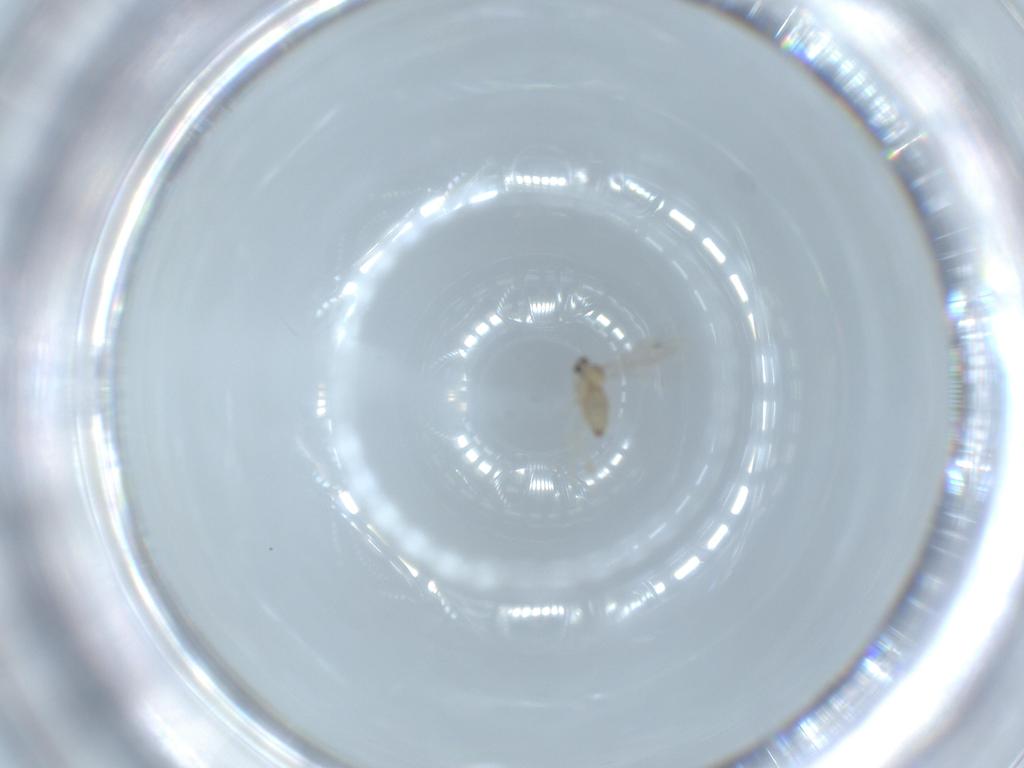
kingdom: Animalia
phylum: Arthropoda
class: Insecta
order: Diptera
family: Cecidomyiidae
